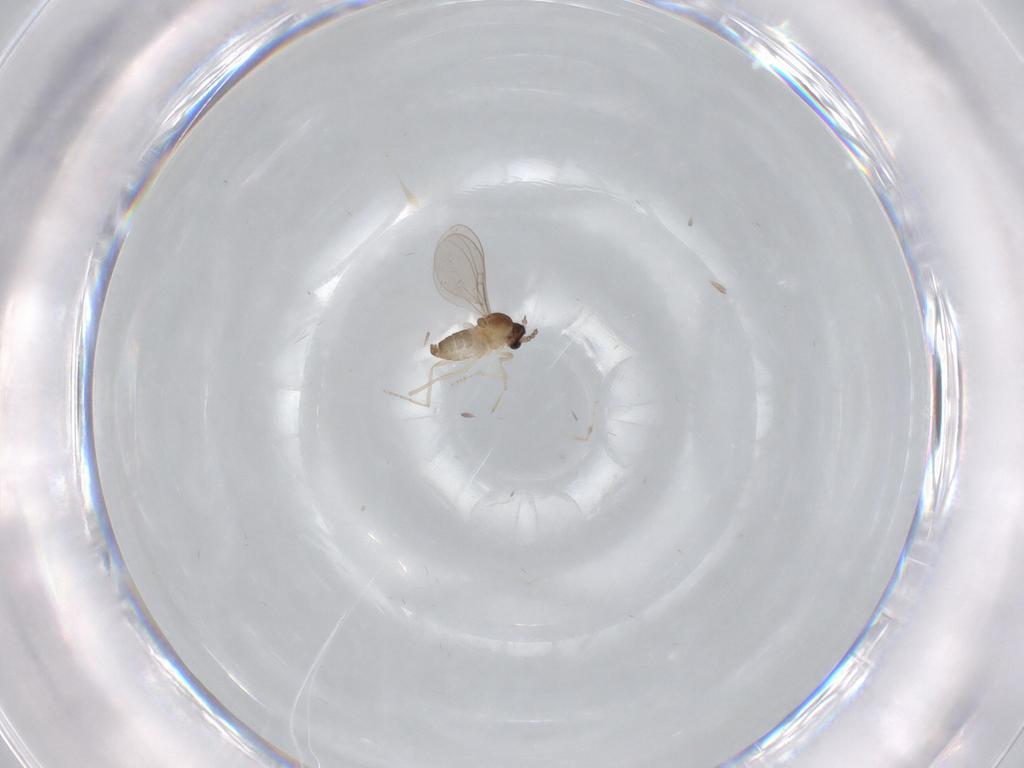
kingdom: Animalia
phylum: Arthropoda
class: Insecta
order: Diptera
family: Cecidomyiidae
